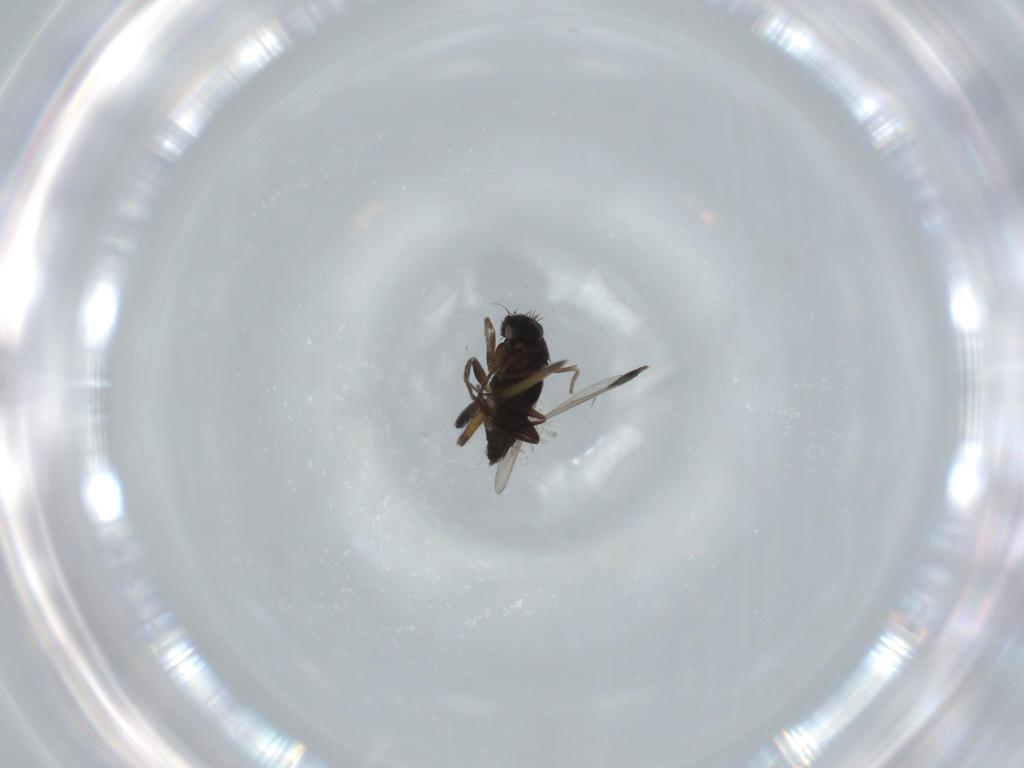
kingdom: Animalia
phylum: Arthropoda
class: Insecta
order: Diptera
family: Phoridae
